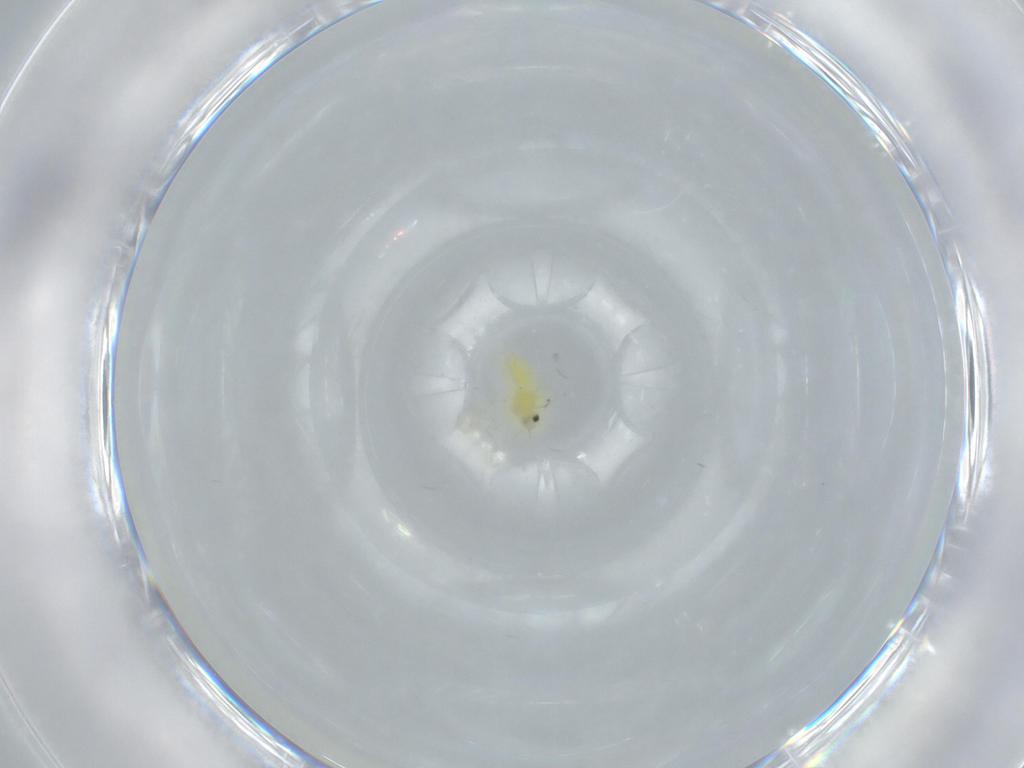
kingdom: Animalia
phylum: Arthropoda
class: Insecta
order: Hemiptera
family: Aleyrodidae
